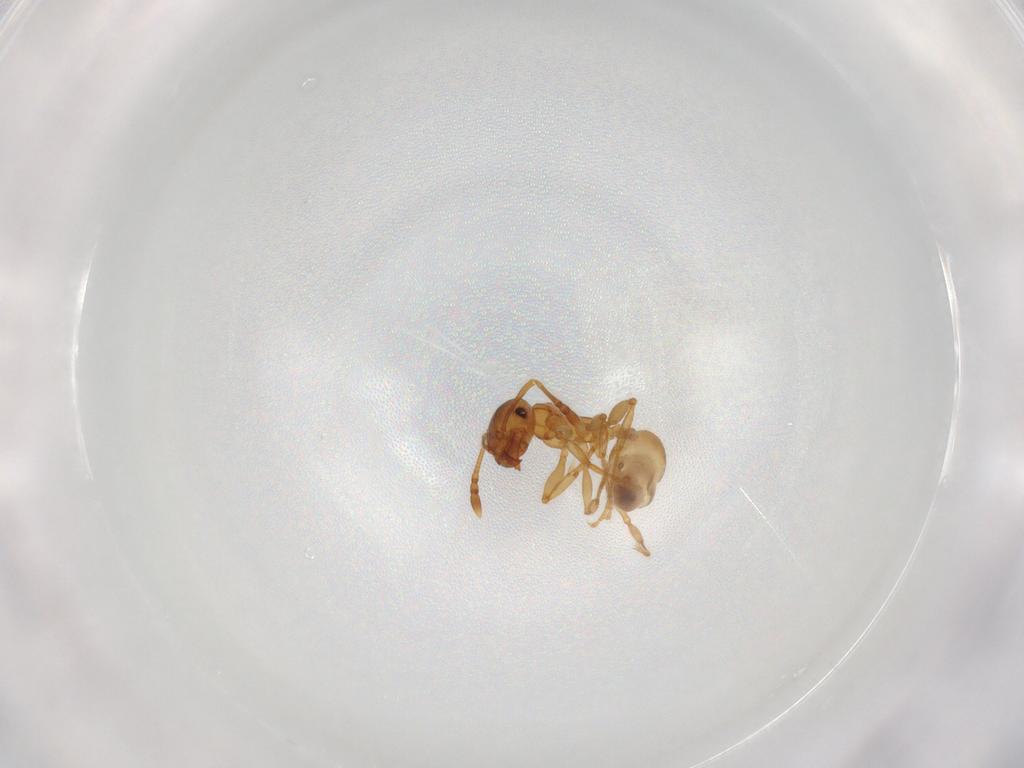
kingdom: Animalia
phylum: Arthropoda
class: Insecta
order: Hymenoptera
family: Formicidae
